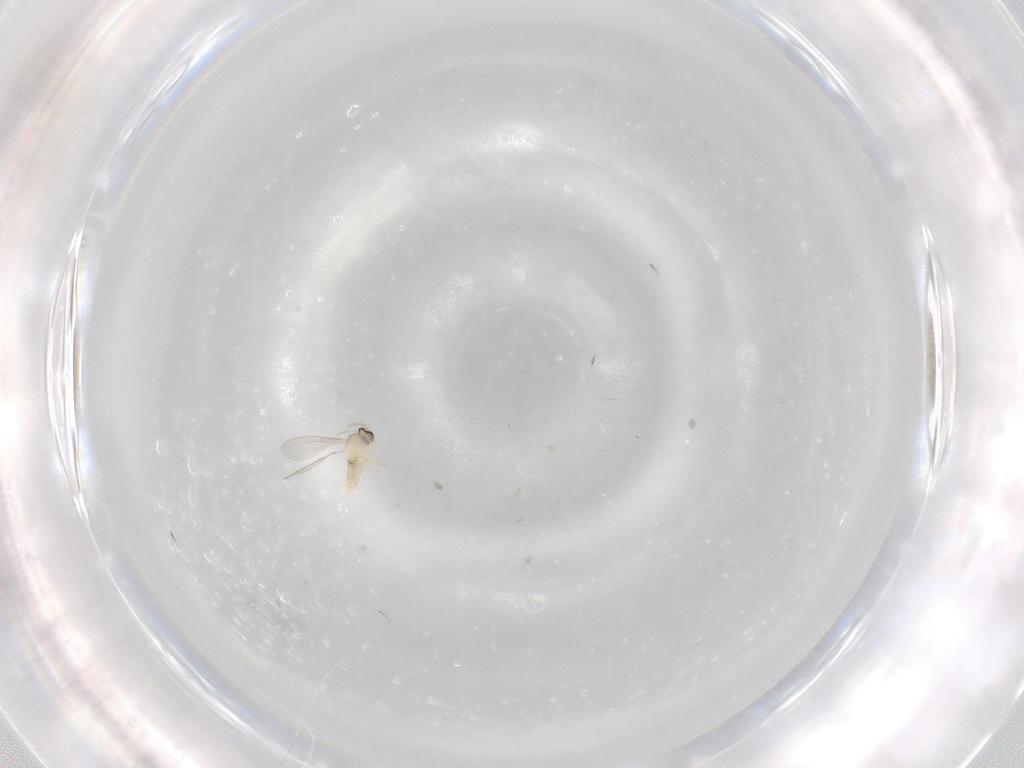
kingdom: Animalia
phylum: Arthropoda
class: Insecta
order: Diptera
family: Cecidomyiidae
